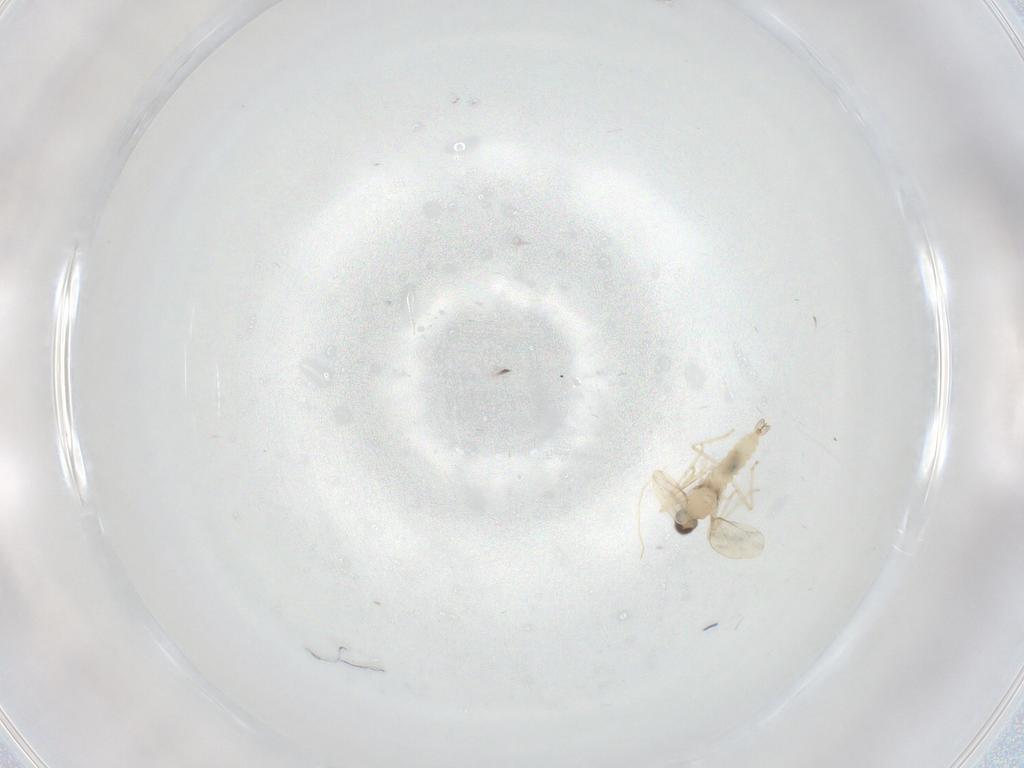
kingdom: Animalia
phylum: Arthropoda
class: Insecta
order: Diptera
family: Cecidomyiidae
